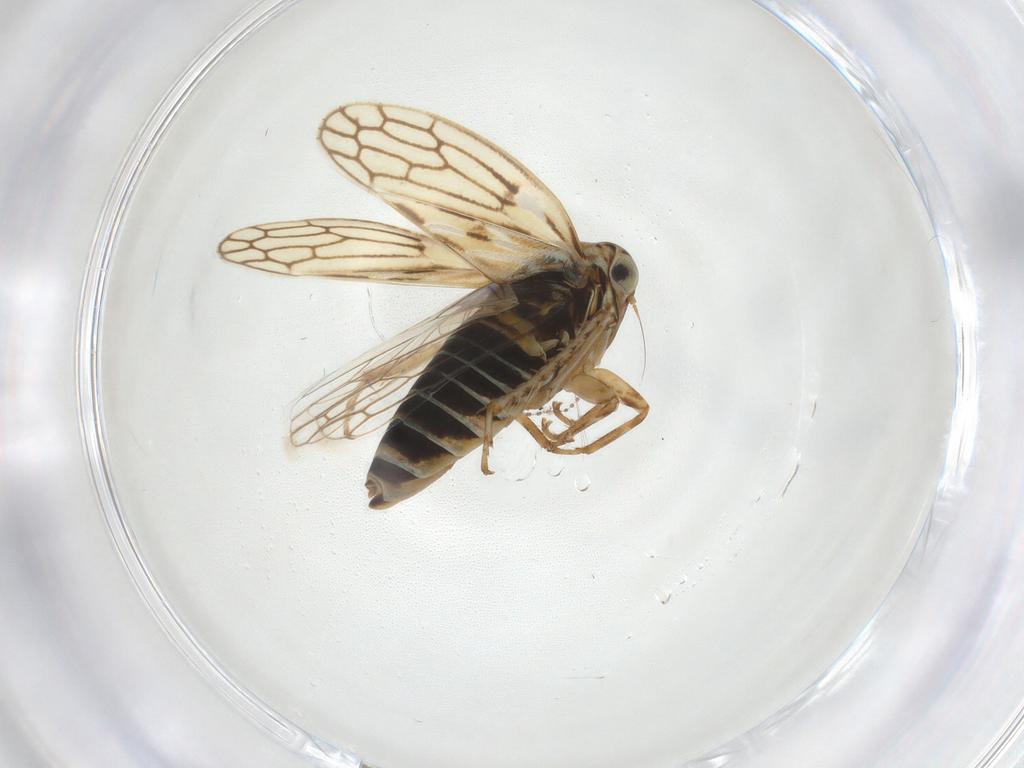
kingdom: Animalia
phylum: Arthropoda
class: Insecta
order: Hemiptera
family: Cicadellidae
